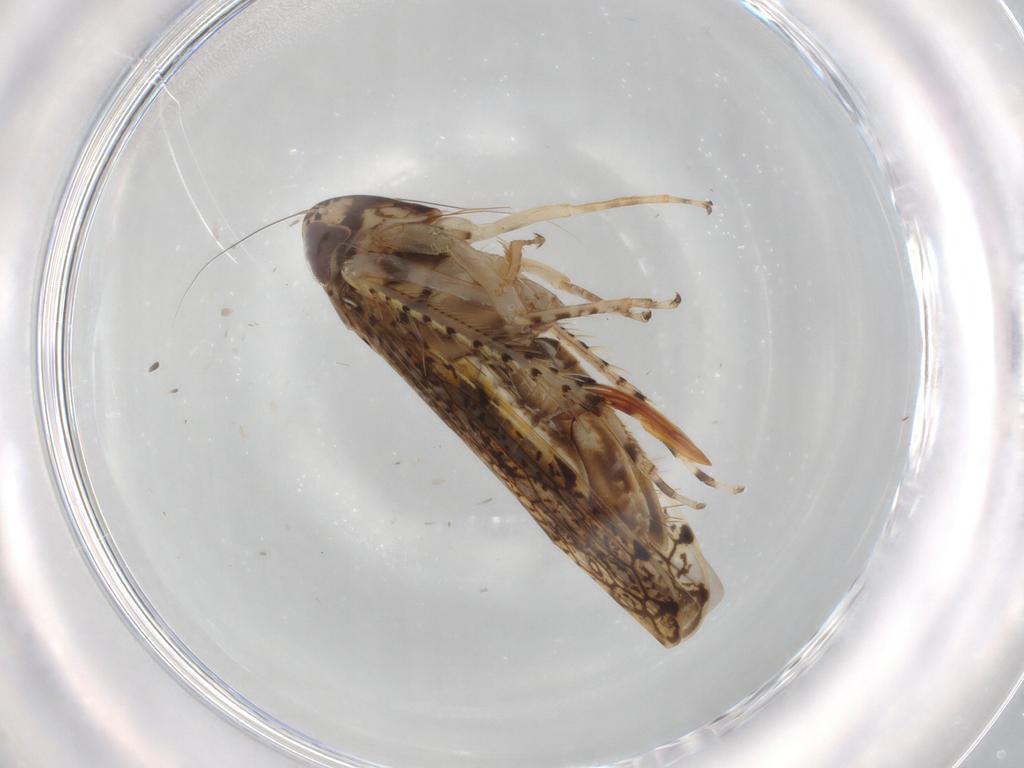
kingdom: Animalia
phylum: Arthropoda
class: Insecta
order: Hemiptera
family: Cicadellidae
